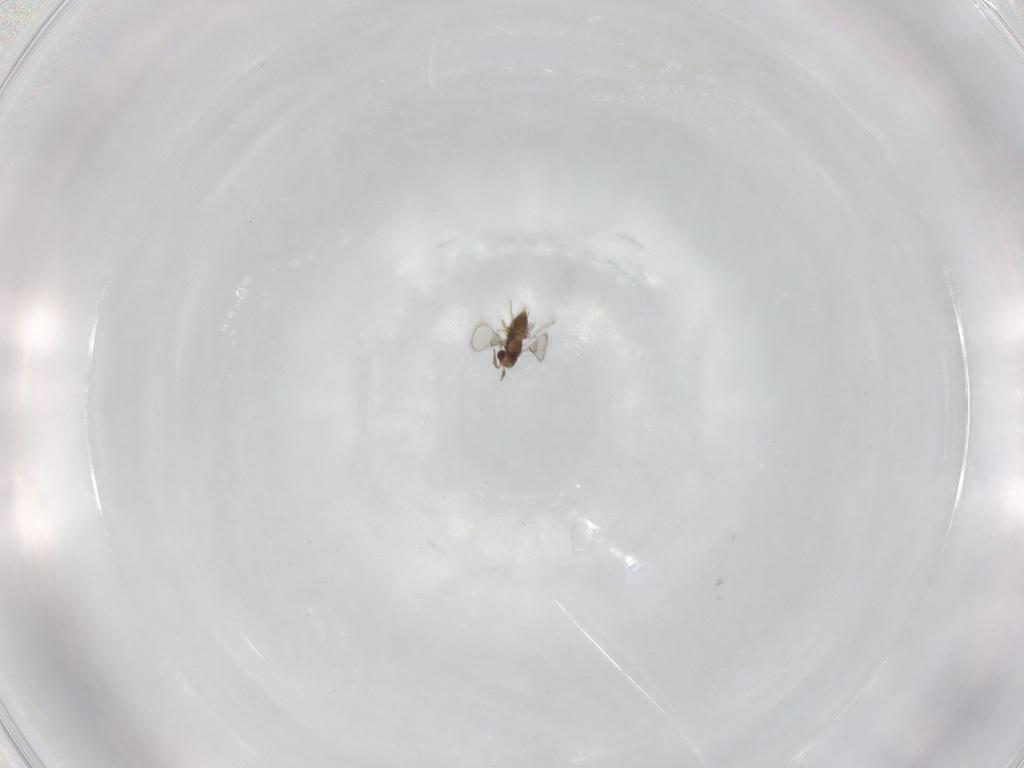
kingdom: Animalia
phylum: Arthropoda
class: Insecta
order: Hymenoptera
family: Trichogrammatidae
